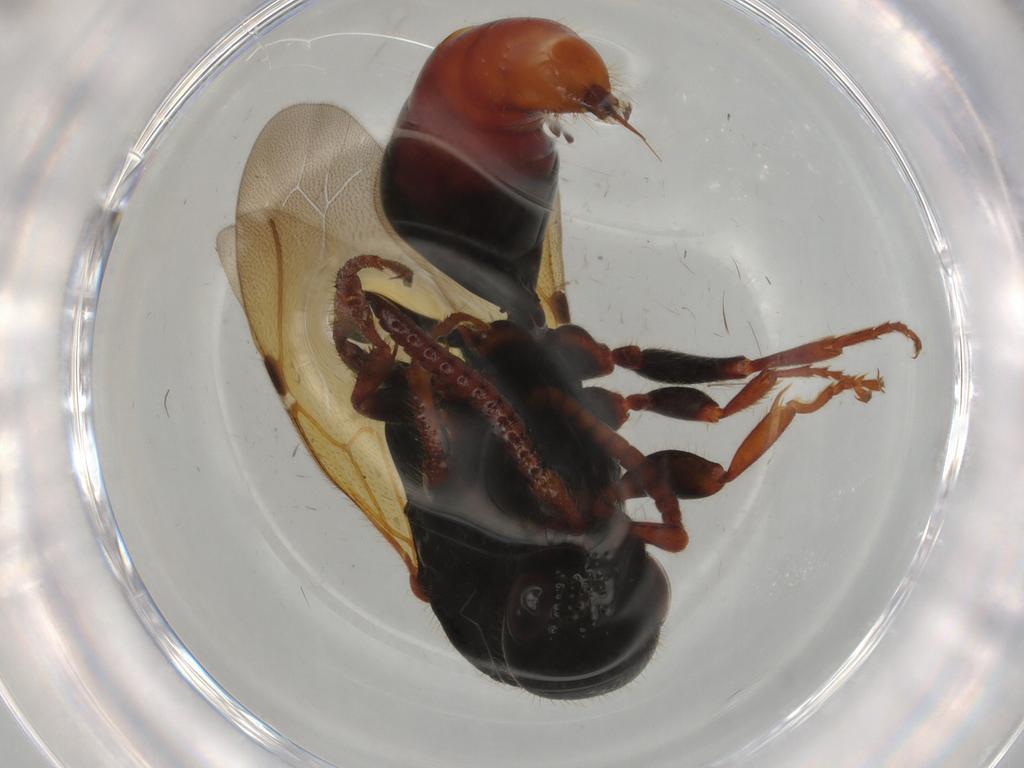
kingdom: Animalia
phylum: Arthropoda
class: Insecta
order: Hymenoptera
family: Bethylidae
